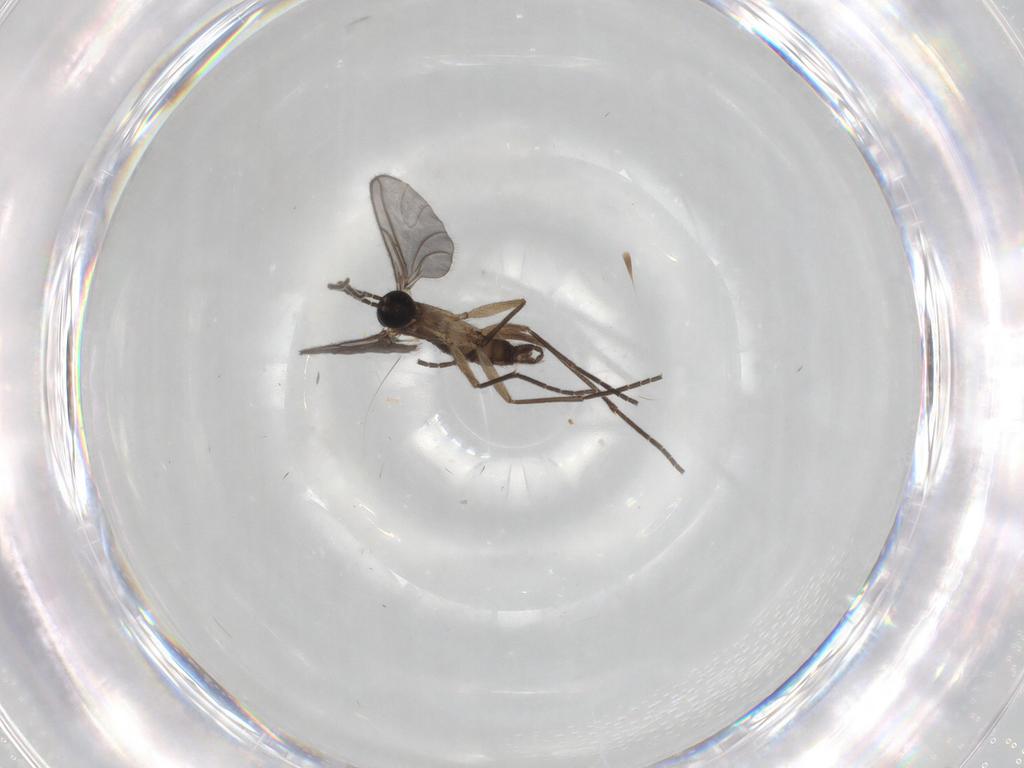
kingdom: Animalia
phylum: Arthropoda
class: Insecta
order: Diptera
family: Sciaridae
